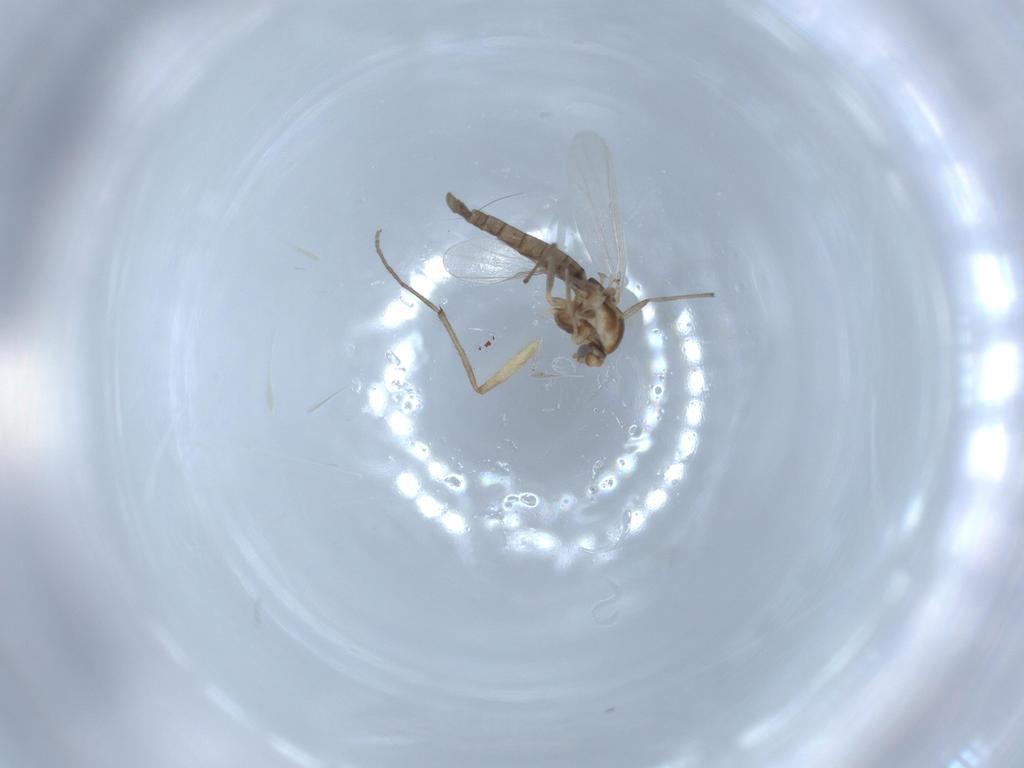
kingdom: Animalia
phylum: Arthropoda
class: Insecta
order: Diptera
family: Chironomidae
